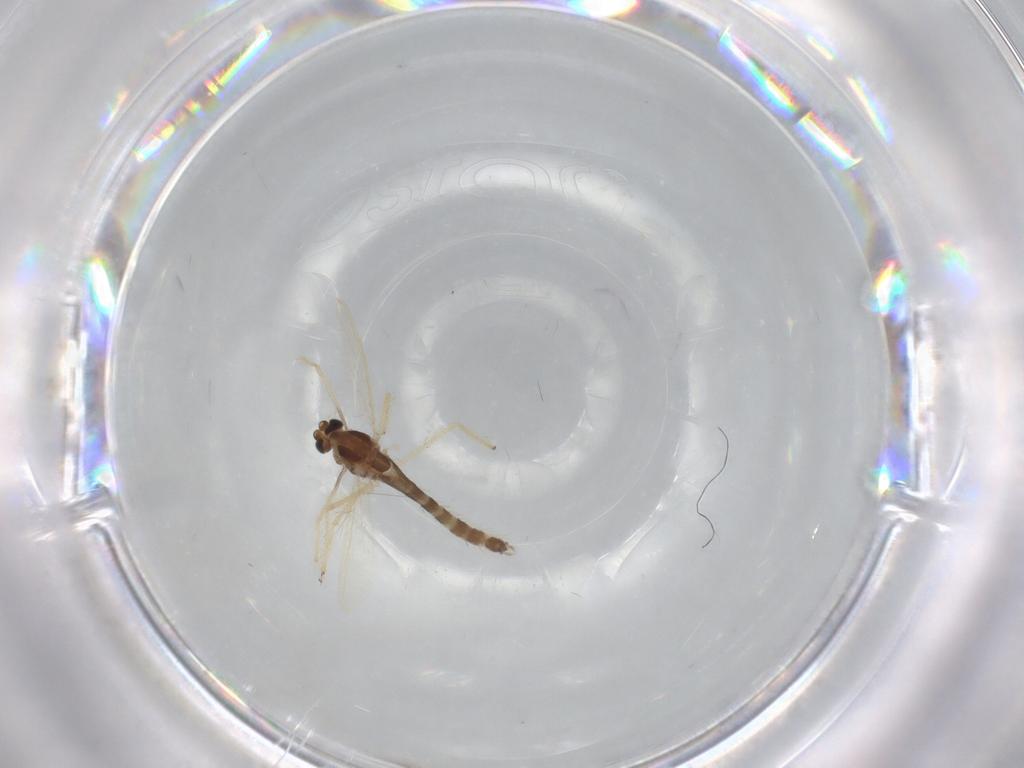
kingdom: Animalia
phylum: Arthropoda
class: Insecta
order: Diptera
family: Chironomidae
